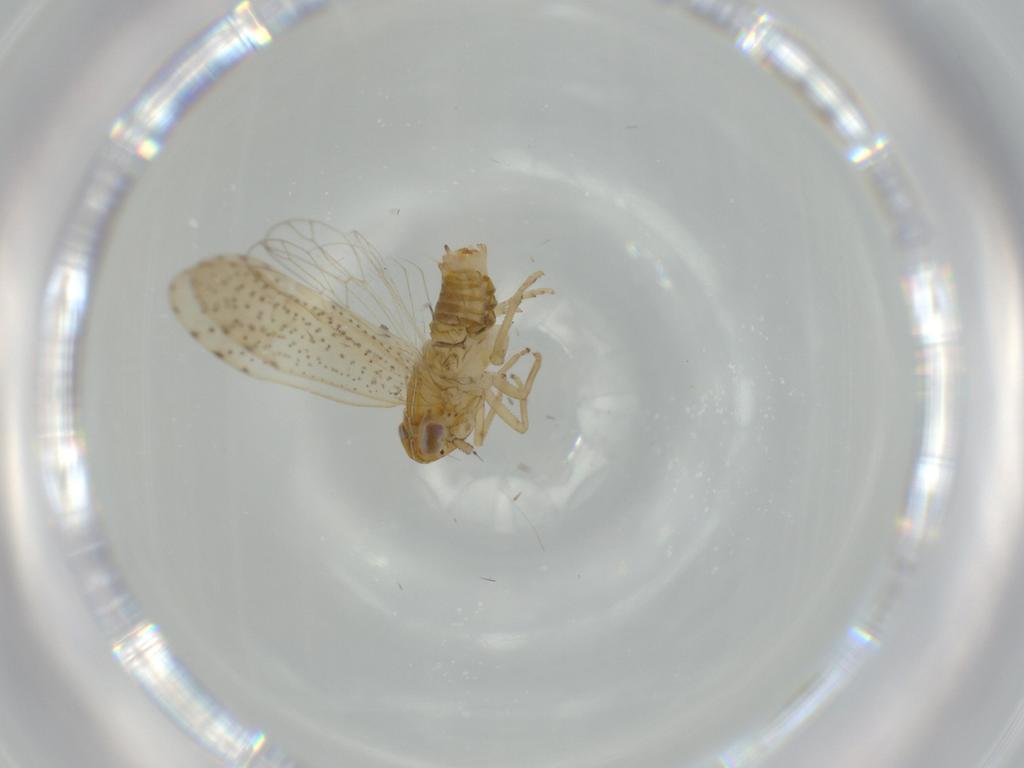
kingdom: Animalia
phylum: Arthropoda
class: Insecta
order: Hemiptera
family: Delphacidae
